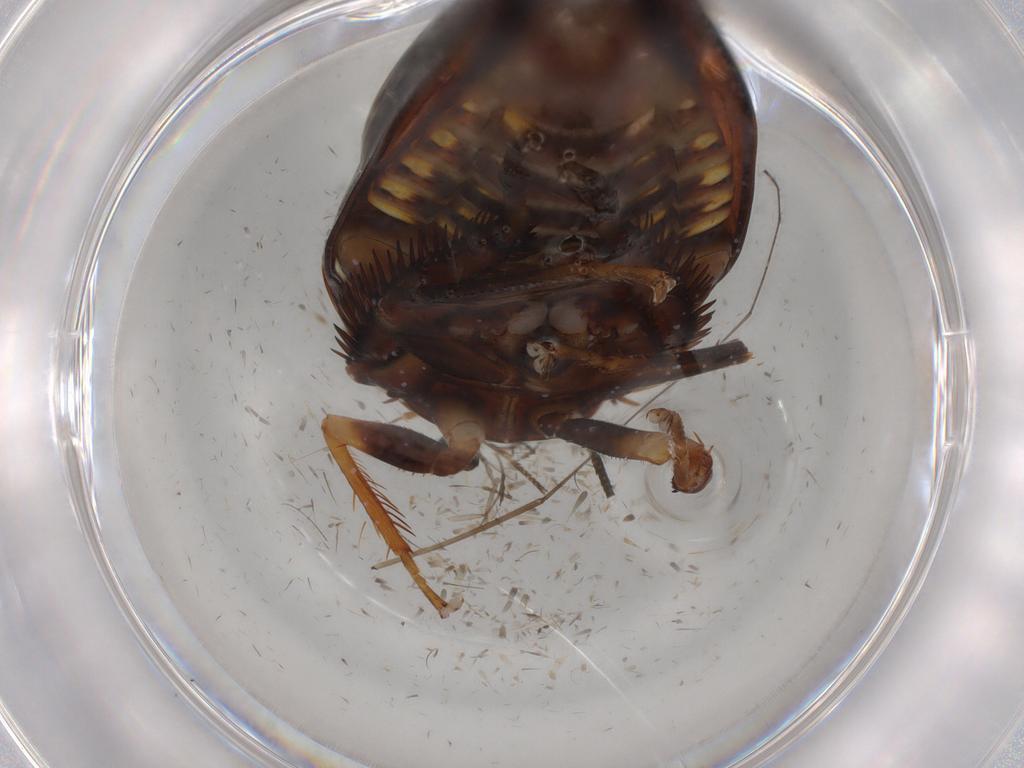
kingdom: Animalia
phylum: Arthropoda
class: Insecta
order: Hemiptera
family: Cicadellidae
